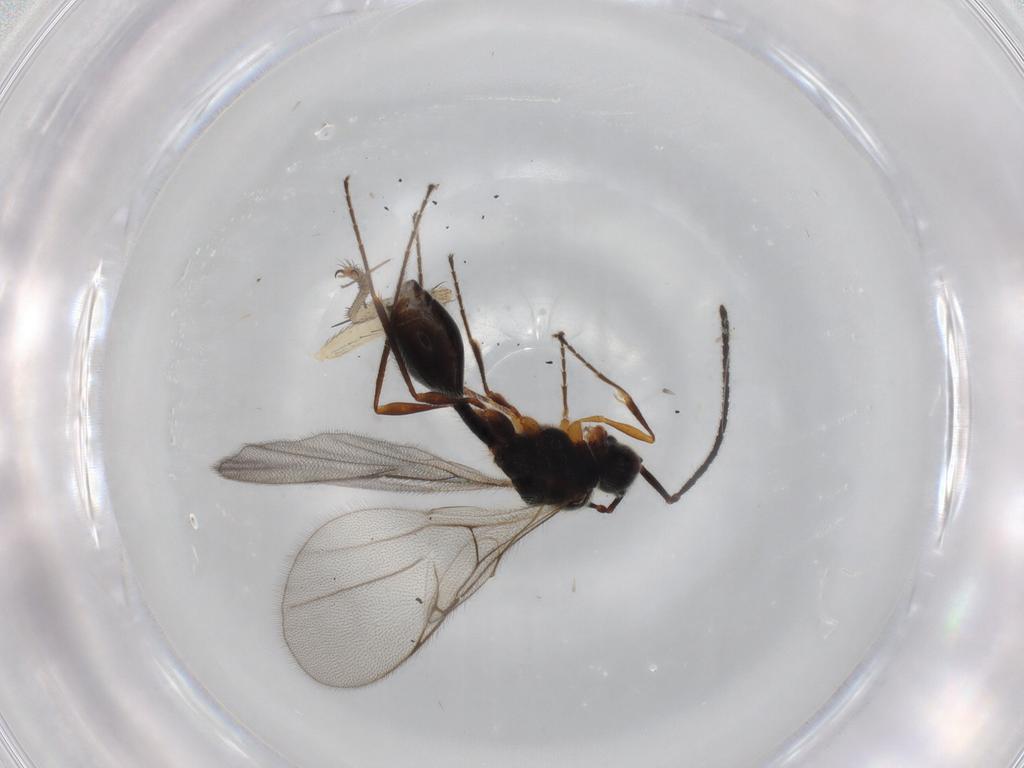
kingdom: Animalia
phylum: Arthropoda
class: Insecta
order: Hymenoptera
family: Diapriidae
